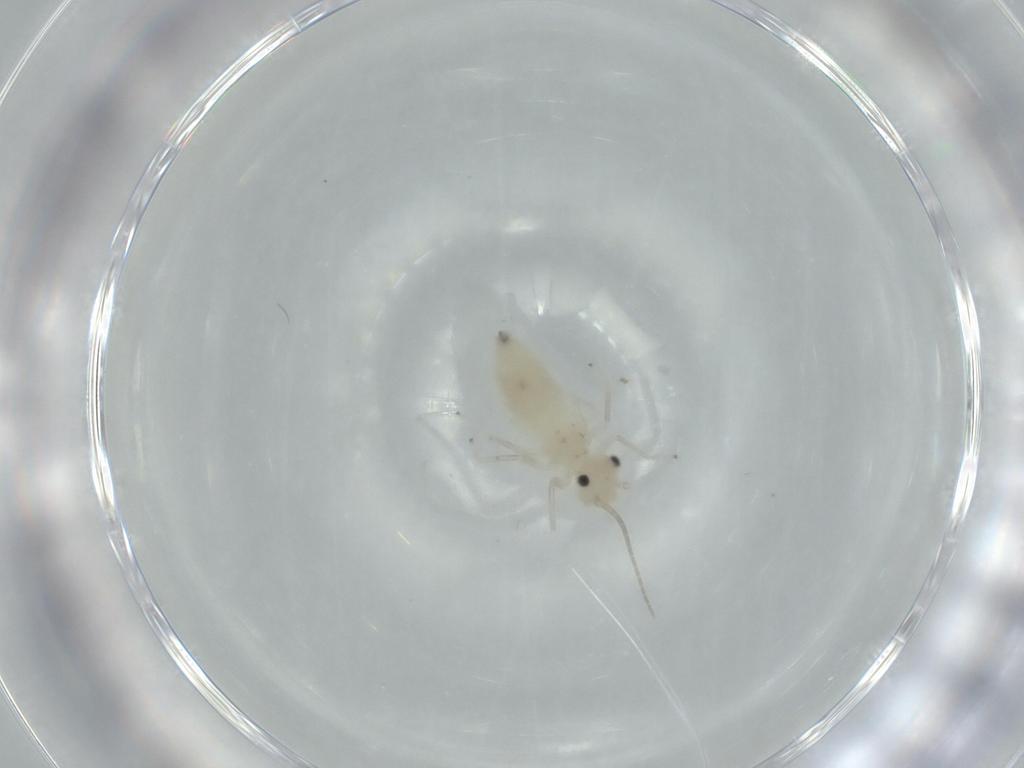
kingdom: Animalia
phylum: Arthropoda
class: Insecta
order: Psocodea
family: Caeciliusidae
